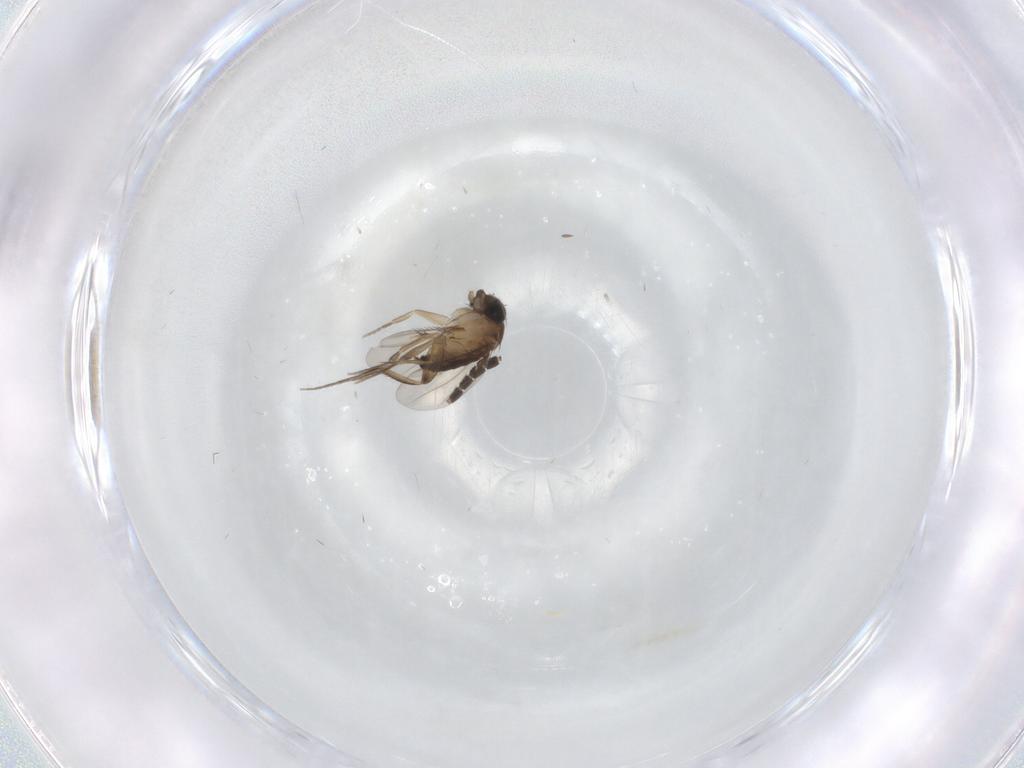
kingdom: Animalia
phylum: Arthropoda
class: Insecta
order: Diptera
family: Phoridae
